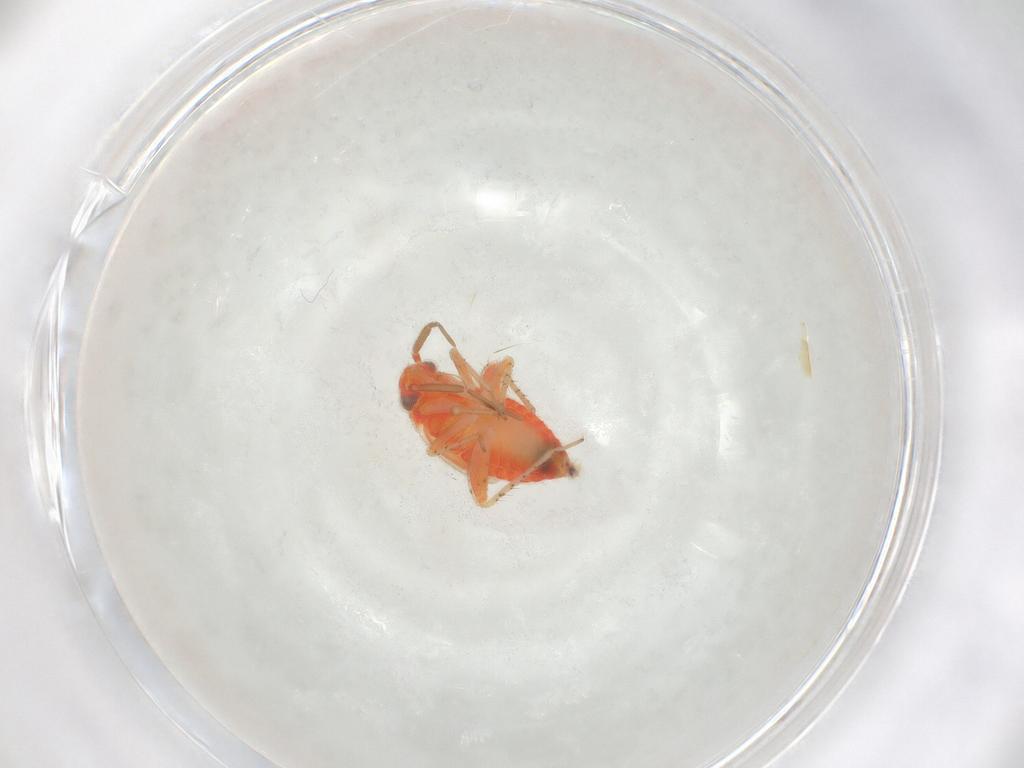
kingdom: Animalia
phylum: Arthropoda
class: Insecta
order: Hemiptera
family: Miridae
